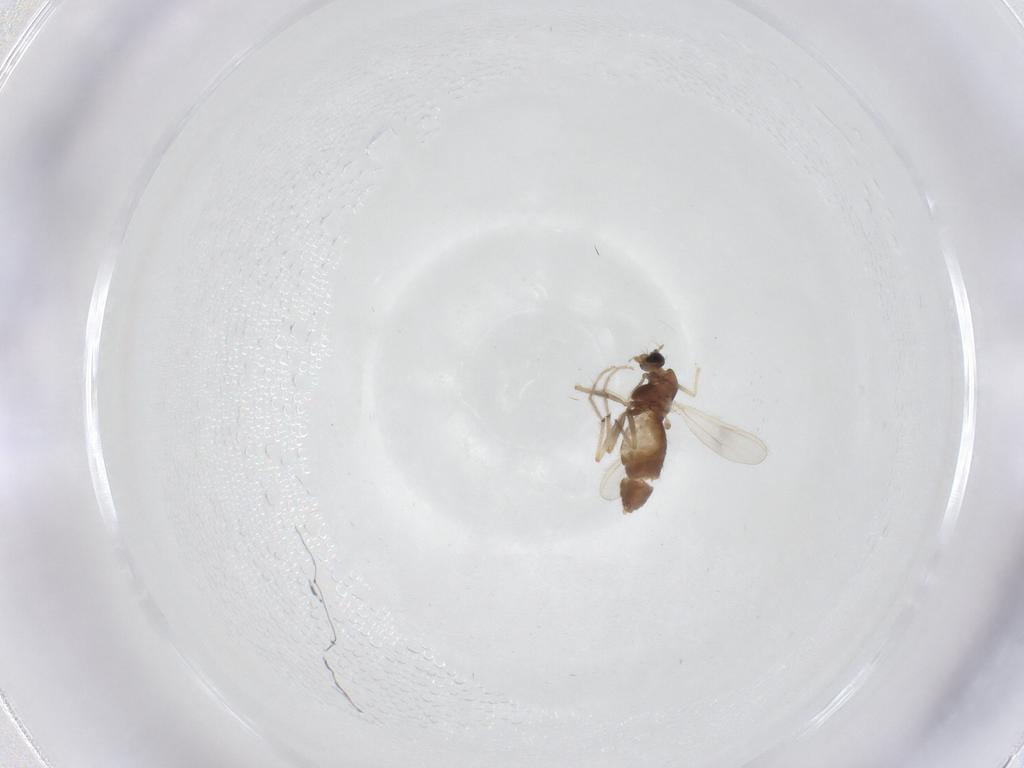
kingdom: Animalia
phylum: Arthropoda
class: Insecta
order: Diptera
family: Chironomidae
